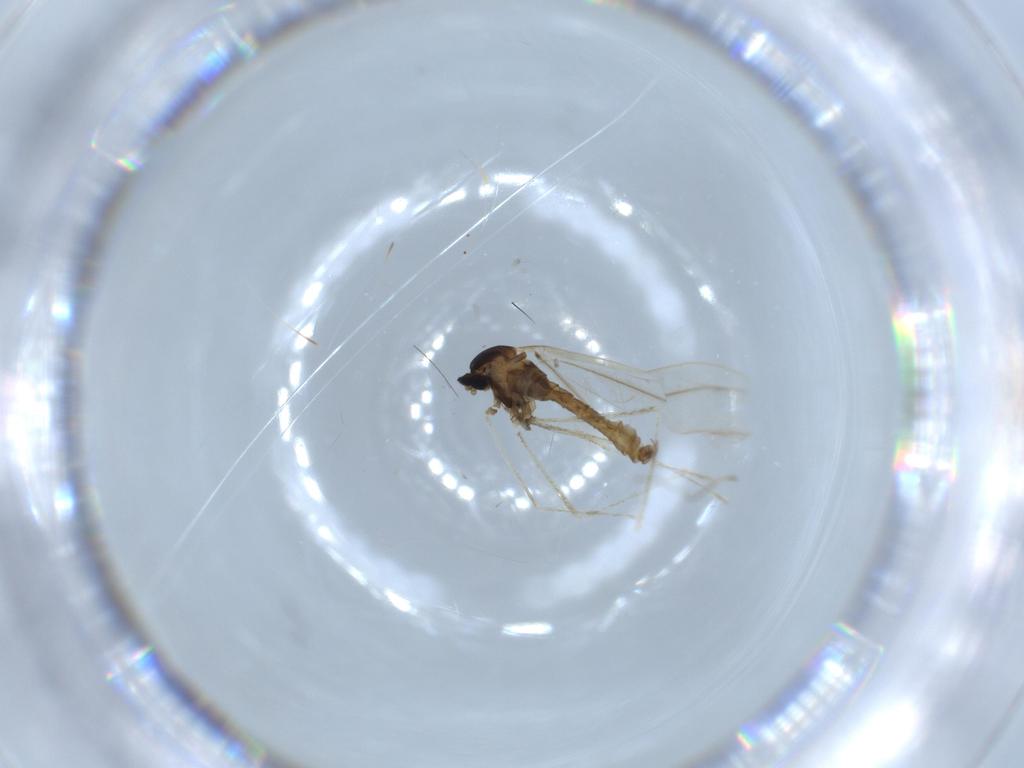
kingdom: Animalia
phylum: Arthropoda
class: Insecta
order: Diptera
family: Cecidomyiidae
